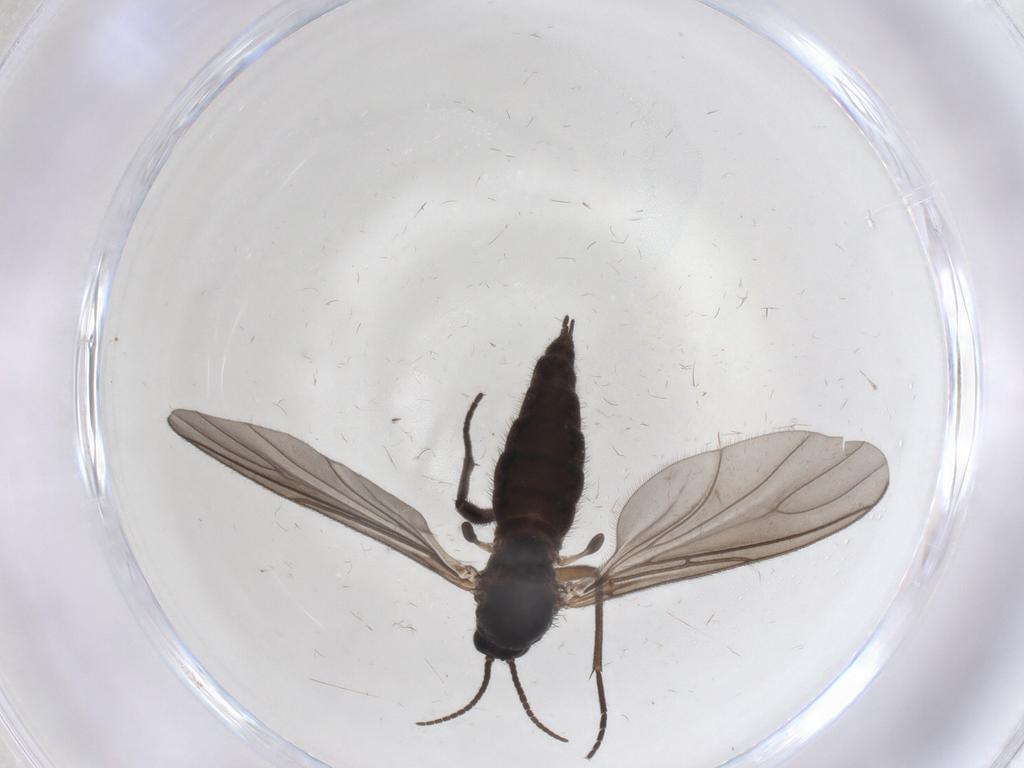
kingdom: Animalia
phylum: Arthropoda
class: Insecta
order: Diptera
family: Sciaridae
